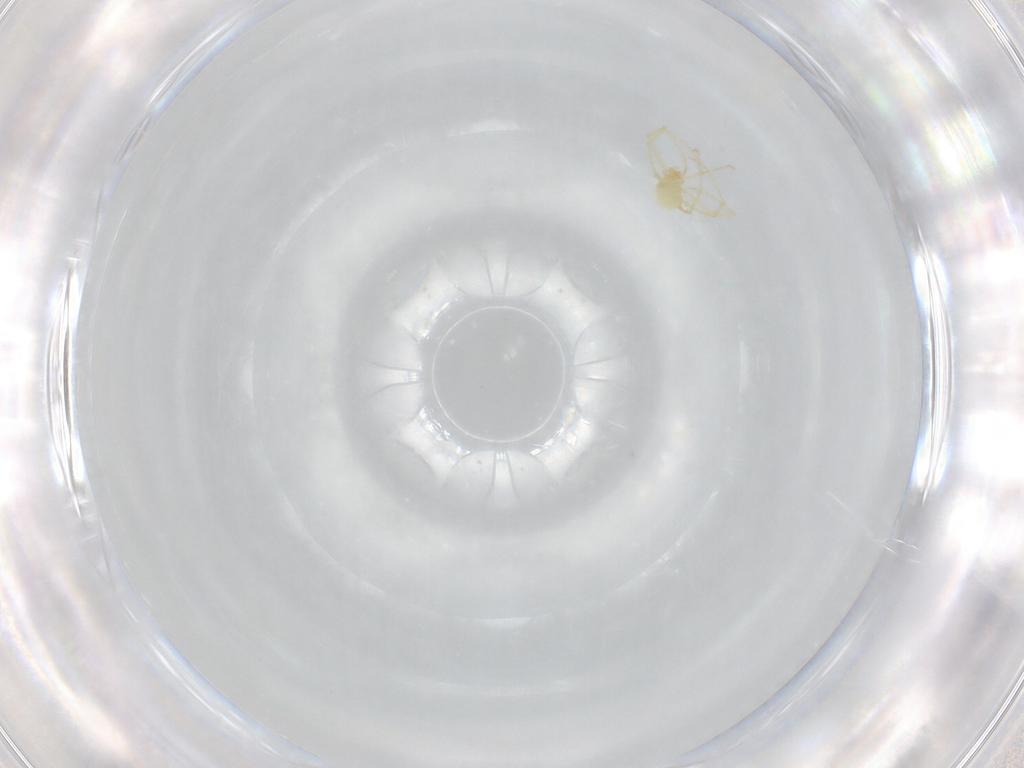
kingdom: Animalia
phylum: Arthropoda
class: Arachnida
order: Trombidiformes
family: Erythraeidae
